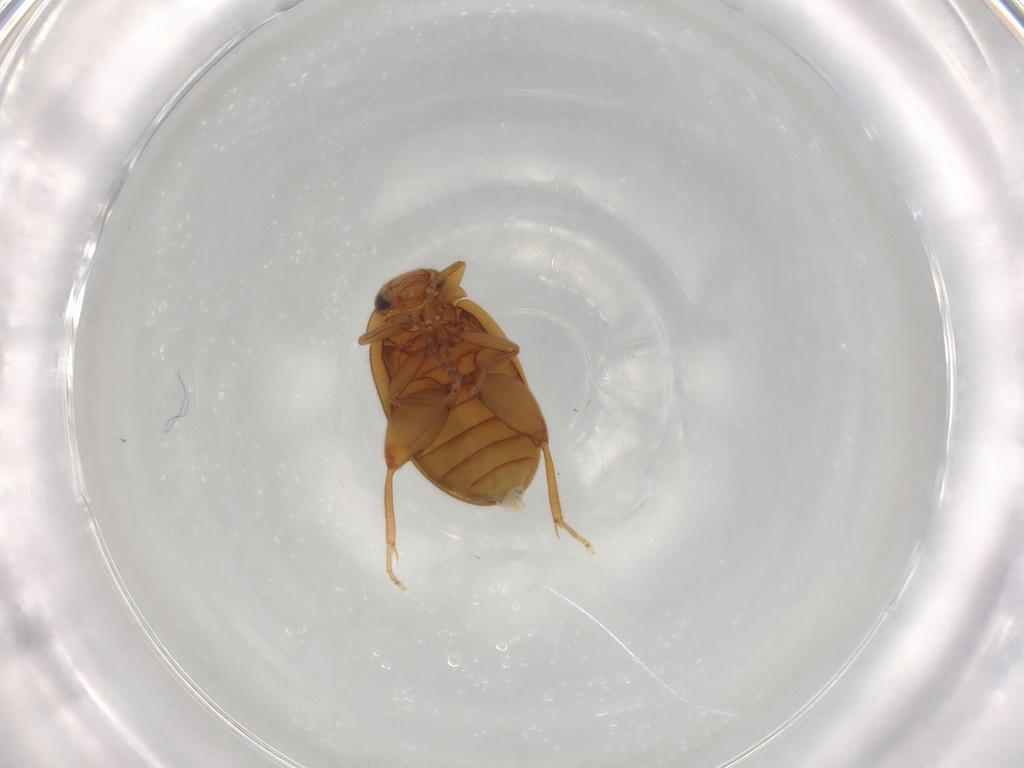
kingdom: Animalia
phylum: Arthropoda
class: Insecta
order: Coleoptera
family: Scirtidae
